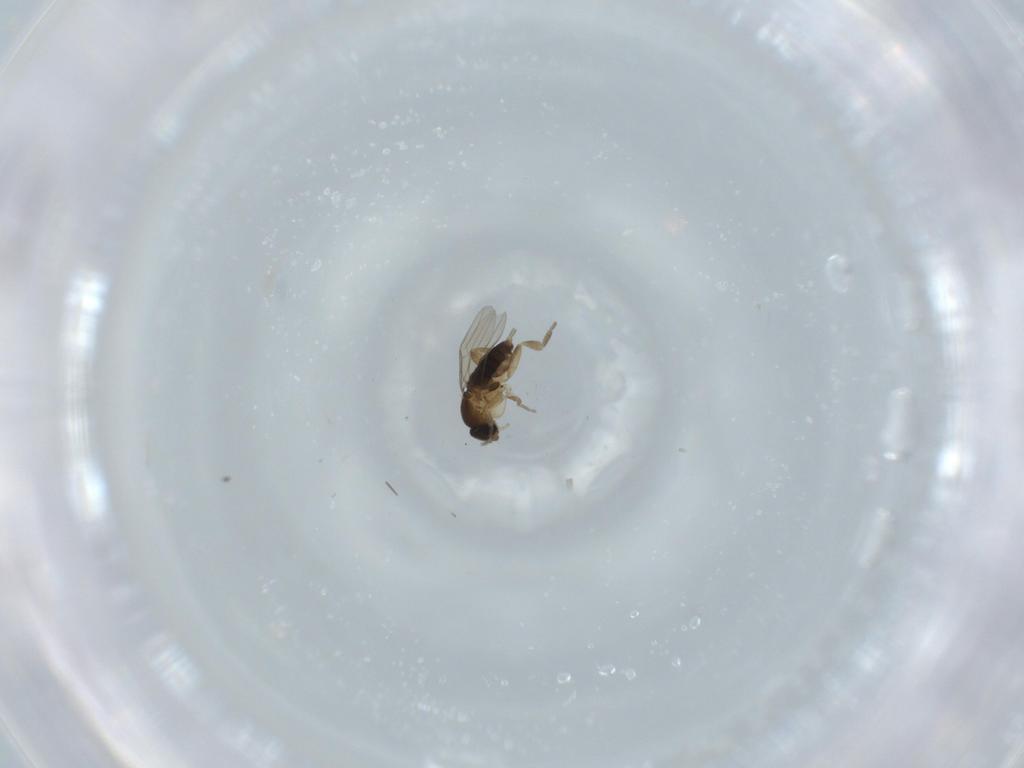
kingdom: Animalia
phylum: Arthropoda
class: Insecta
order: Diptera
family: Phoridae
